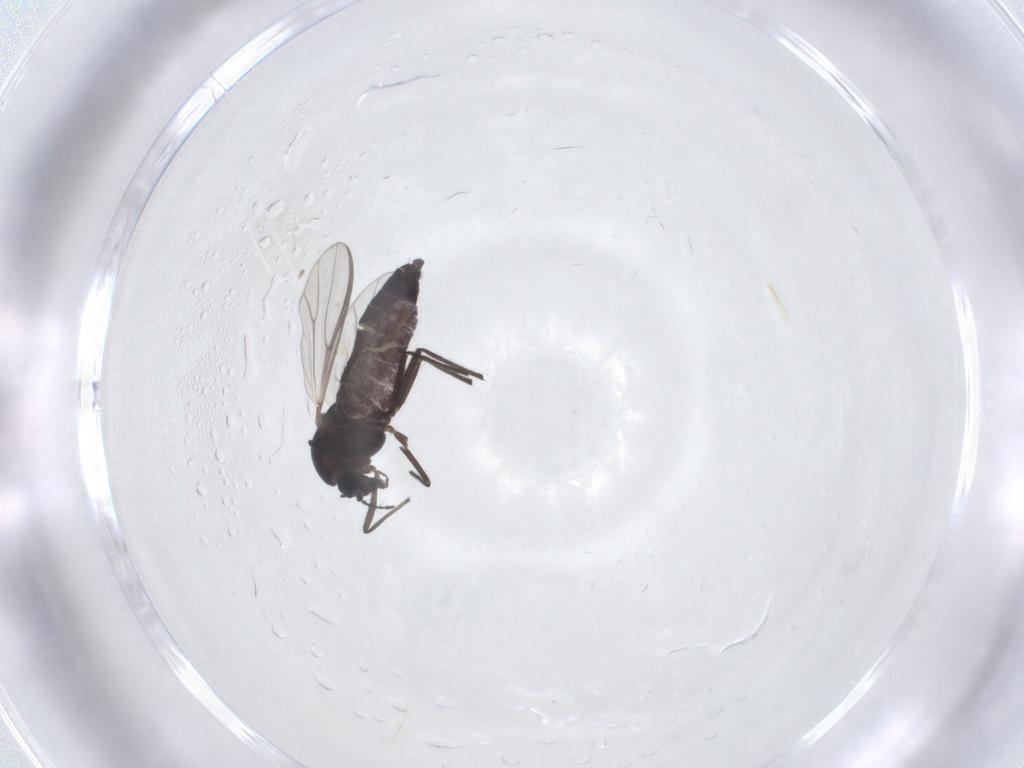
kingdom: Animalia
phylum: Arthropoda
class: Insecta
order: Diptera
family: Chironomidae
